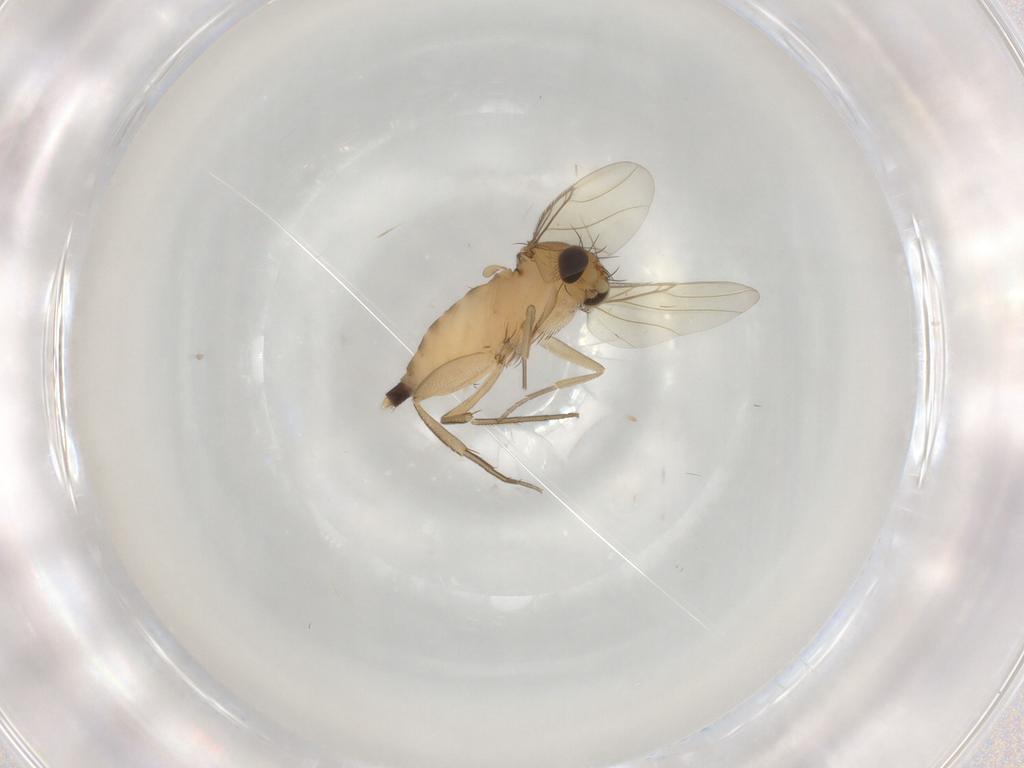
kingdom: Animalia
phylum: Arthropoda
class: Insecta
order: Diptera
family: Phoridae
